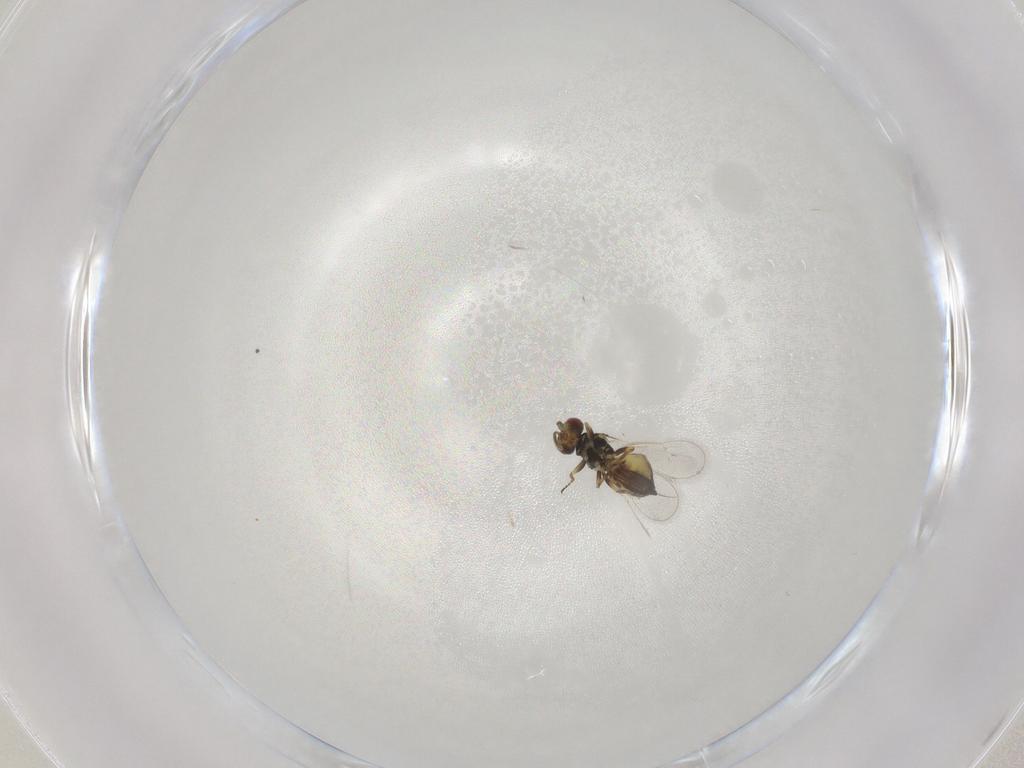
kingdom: Animalia
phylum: Arthropoda
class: Insecta
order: Hymenoptera
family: Eulophidae
